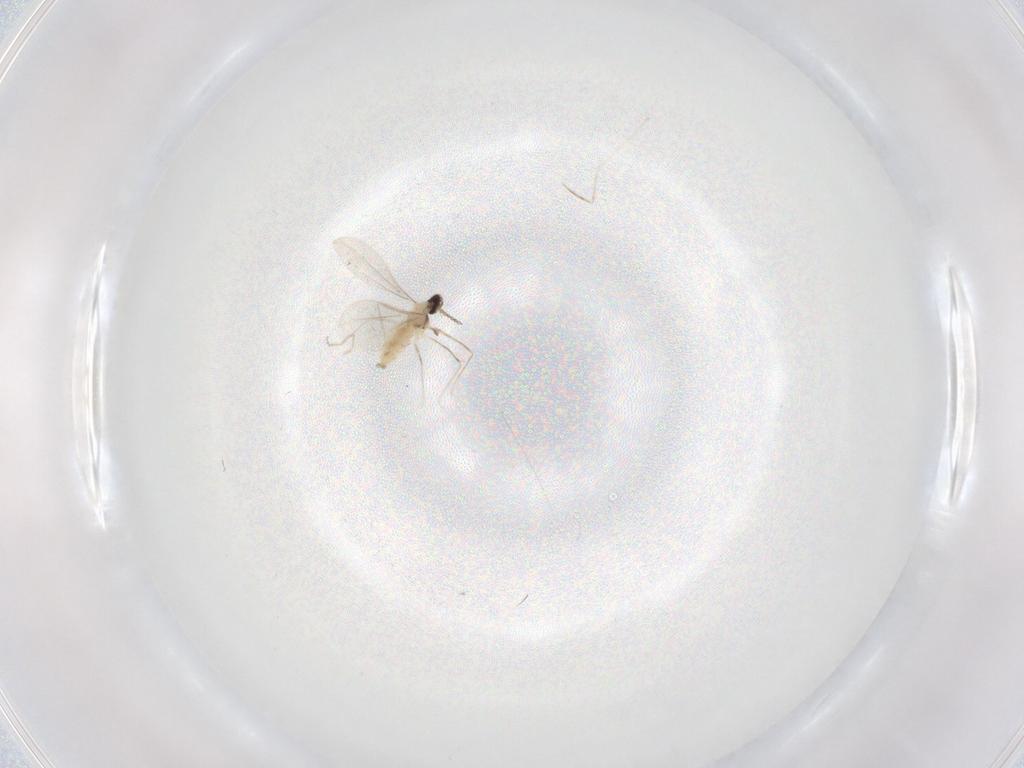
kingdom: Animalia
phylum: Arthropoda
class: Insecta
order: Diptera
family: Cecidomyiidae
